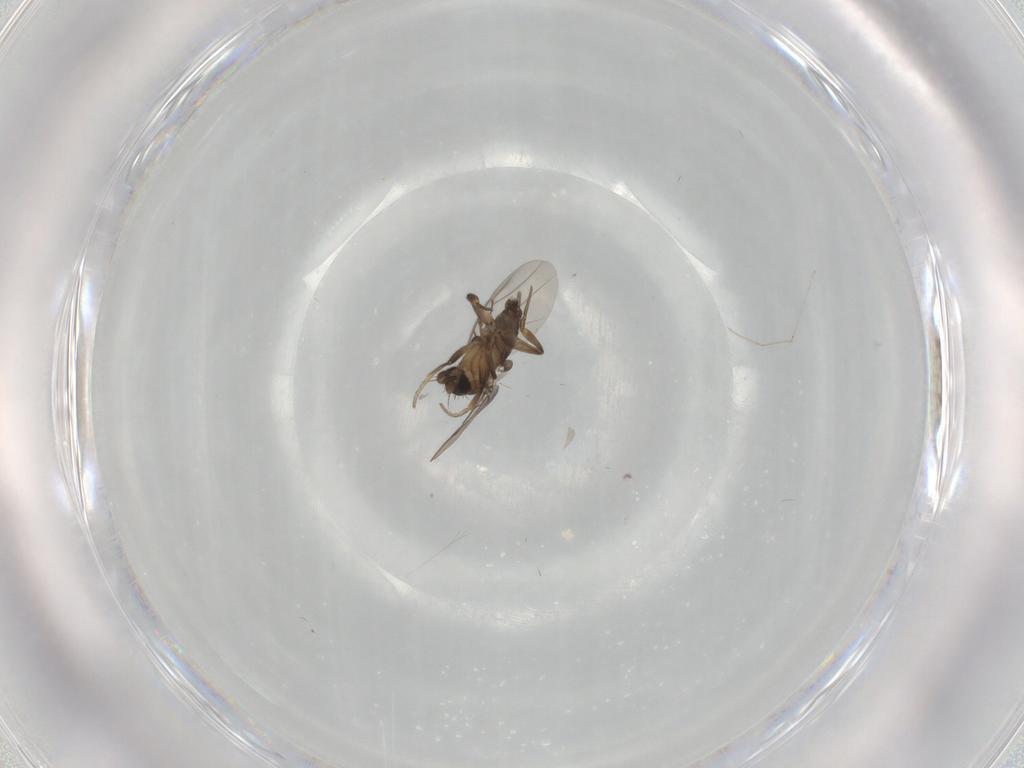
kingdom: Animalia
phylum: Arthropoda
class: Insecta
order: Diptera
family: Phoridae
